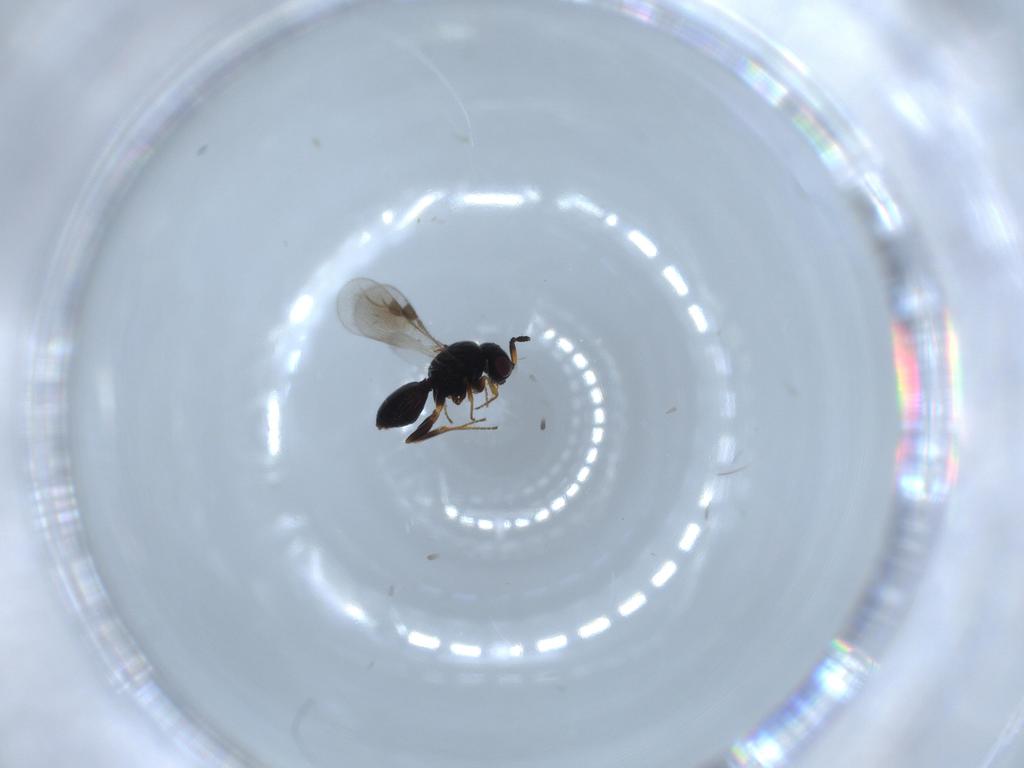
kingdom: Animalia
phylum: Arthropoda
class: Insecta
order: Hymenoptera
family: Megaspilidae
